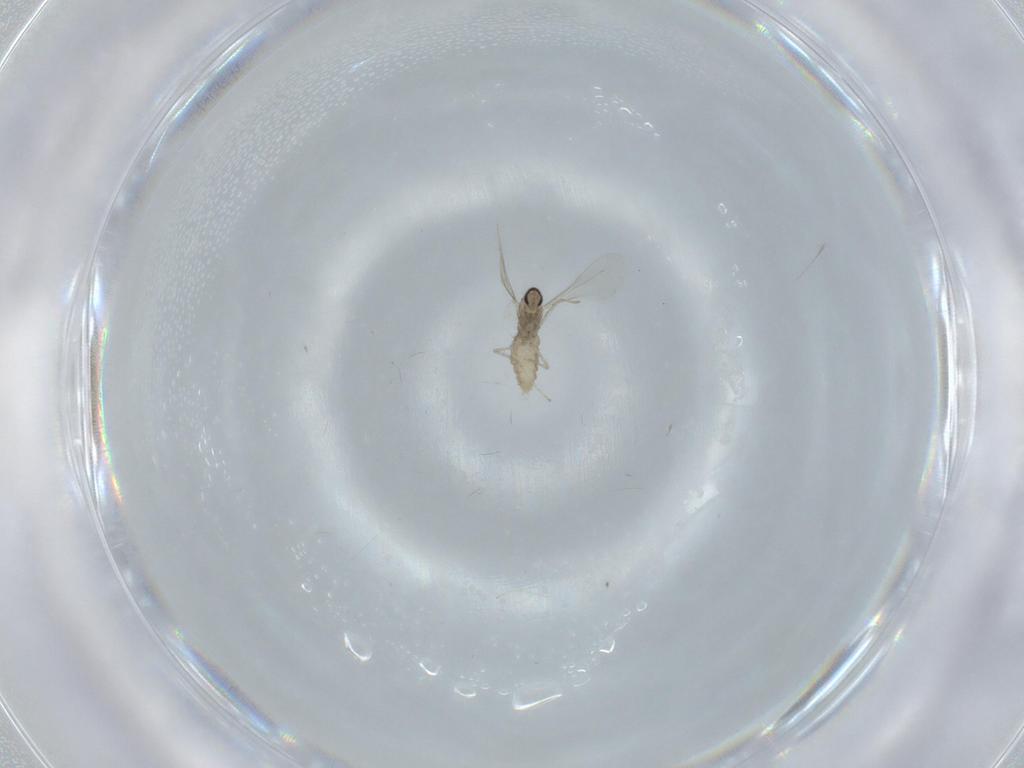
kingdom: Animalia
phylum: Arthropoda
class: Insecta
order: Diptera
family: Cecidomyiidae
